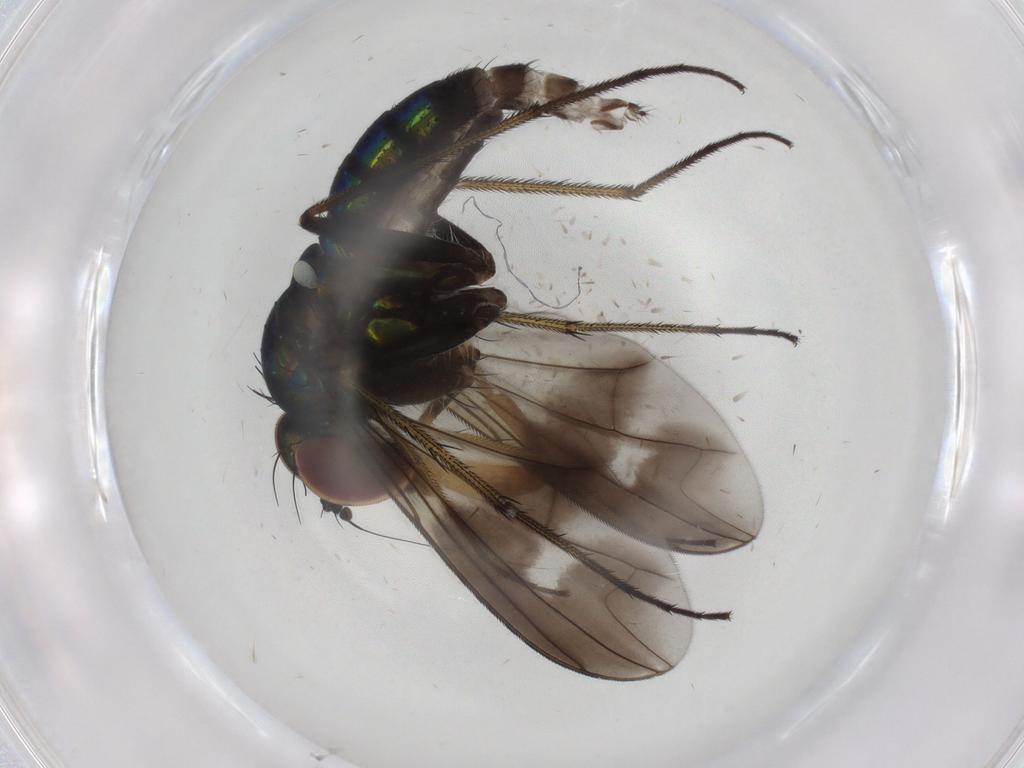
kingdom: Animalia
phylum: Arthropoda
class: Insecta
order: Diptera
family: Dolichopodidae
